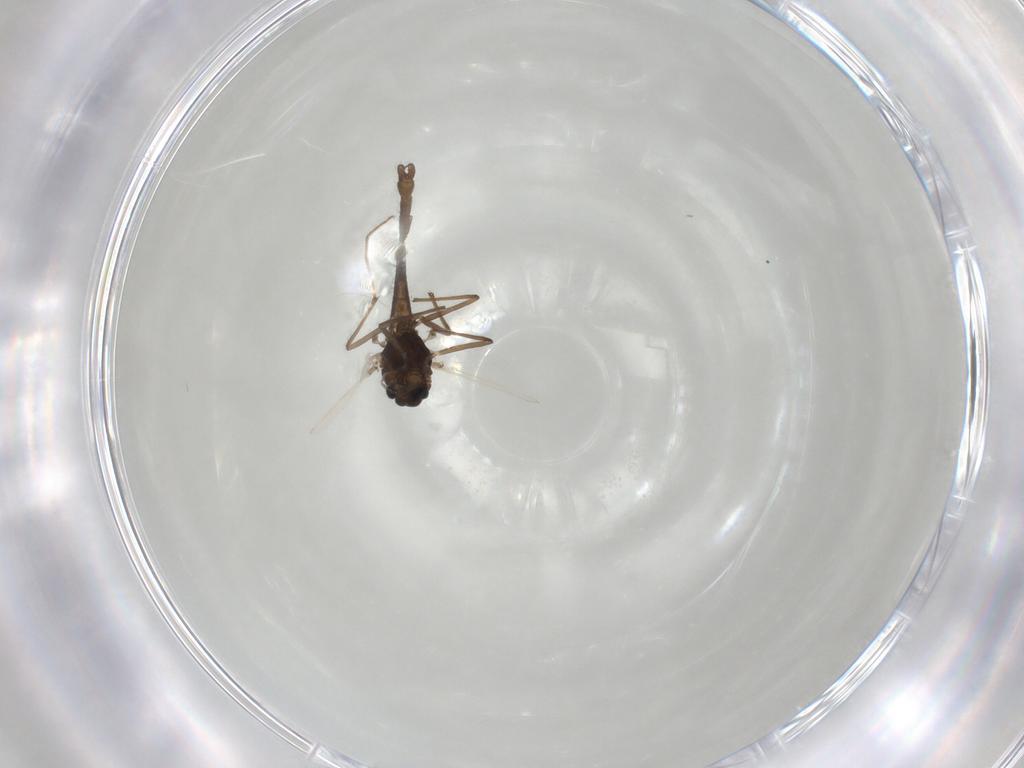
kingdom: Animalia
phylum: Arthropoda
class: Insecta
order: Diptera
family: Chironomidae
